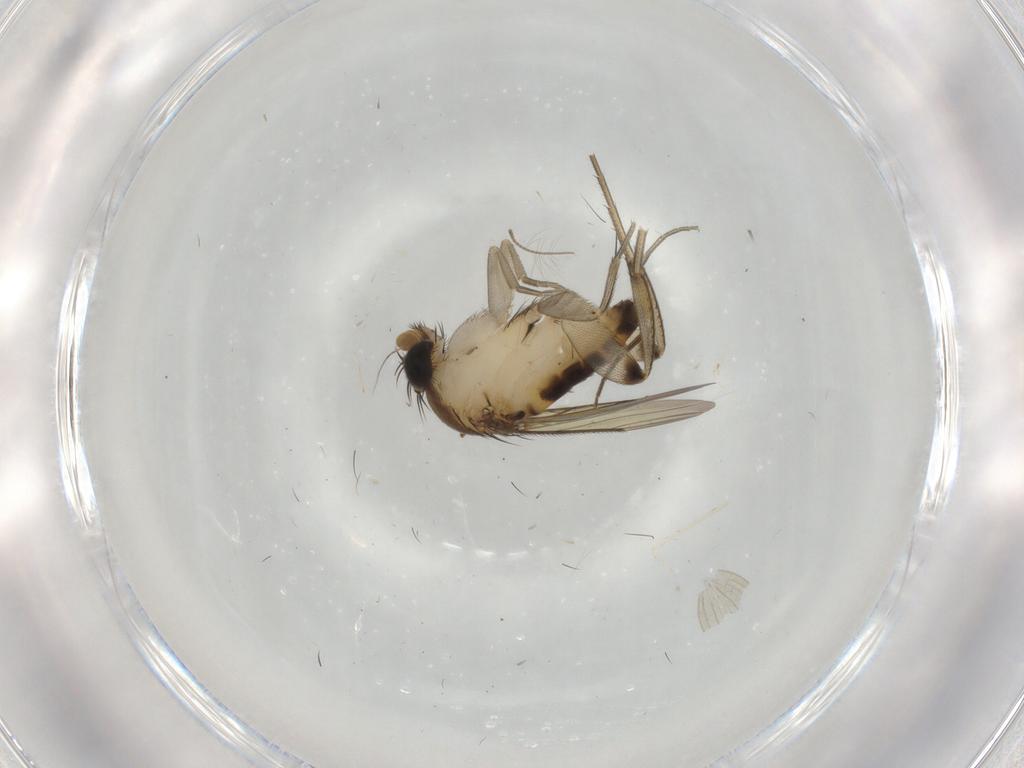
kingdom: Animalia
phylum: Arthropoda
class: Insecta
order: Diptera
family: Phoridae
